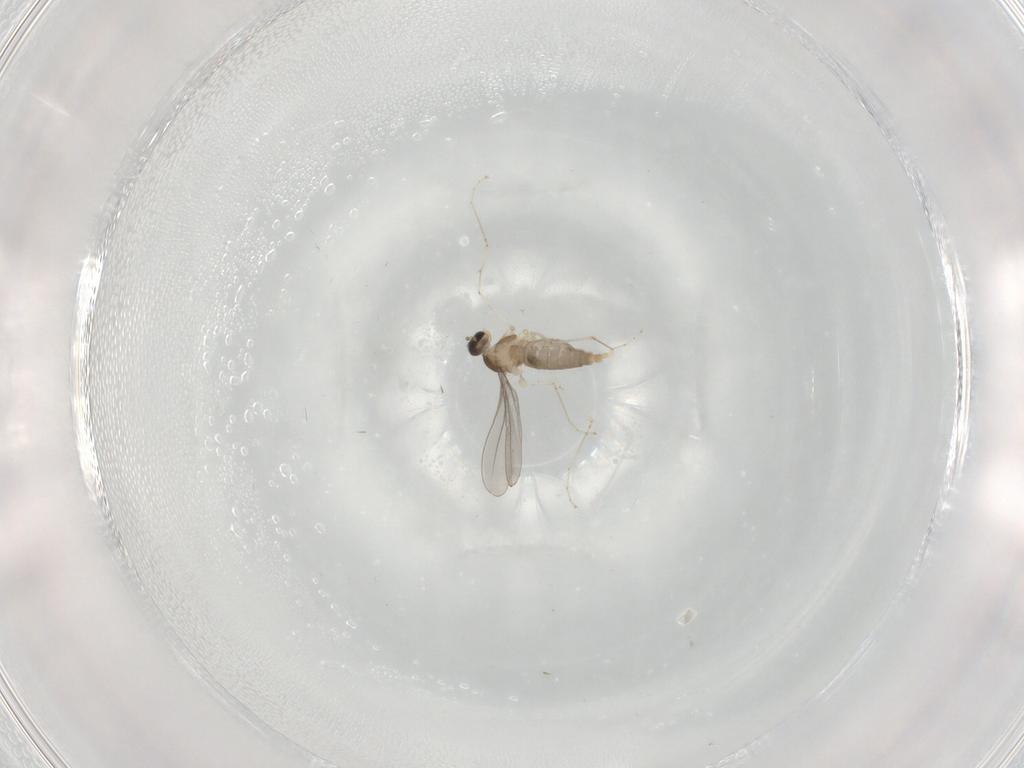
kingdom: Animalia
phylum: Arthropoda
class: Insecta
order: Diptera
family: Cecidomyiidae
